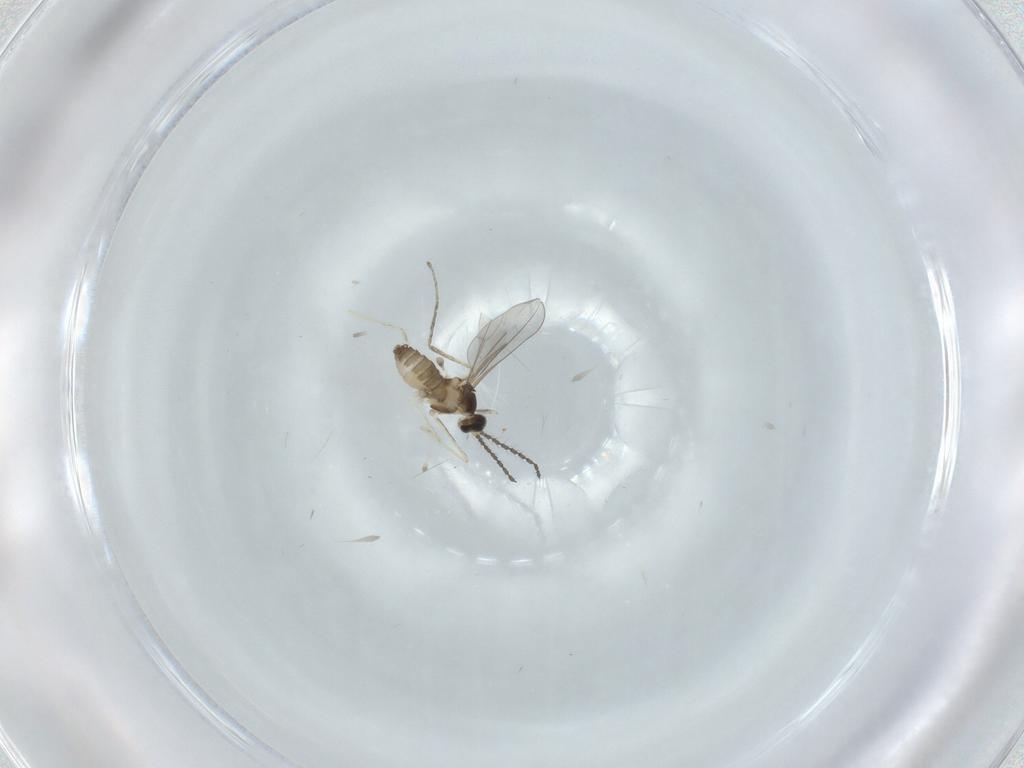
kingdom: Animalia
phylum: Arthropoda
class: Insecta
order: Diptera
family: Cecidomyiidae
